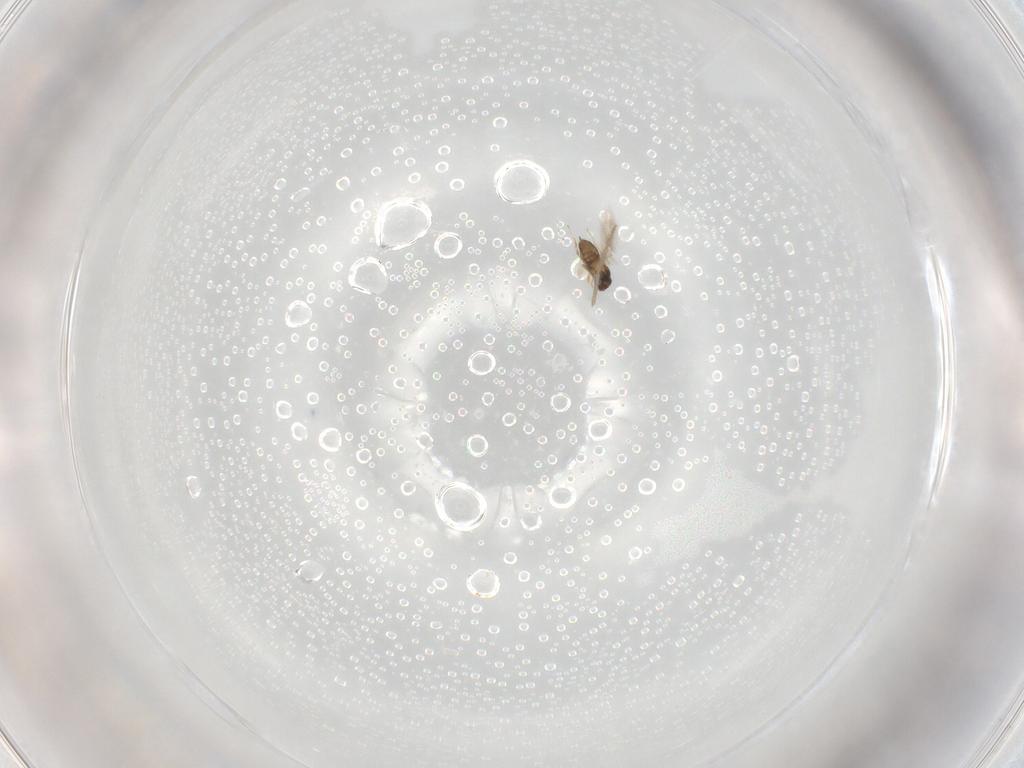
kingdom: Animalia
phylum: Arthropoda
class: Insecta
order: Hymenoptera
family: Mymaridae
